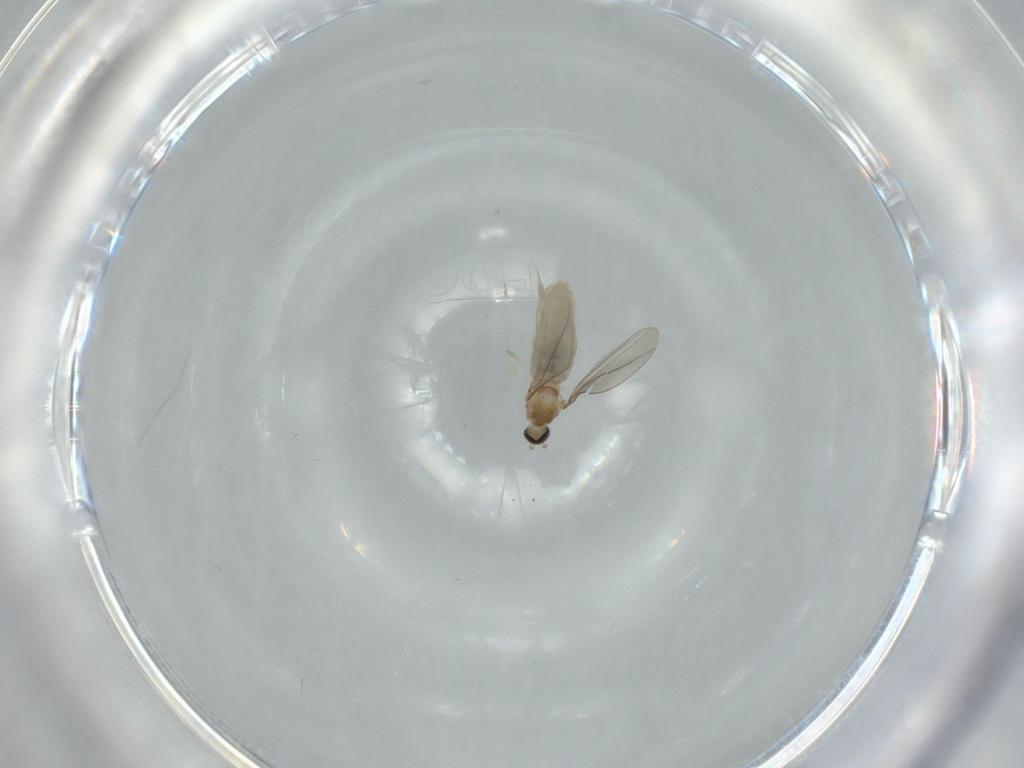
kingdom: Animalia
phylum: Arthropoda
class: Insecta
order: Diptera
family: Cecidomyiidae
